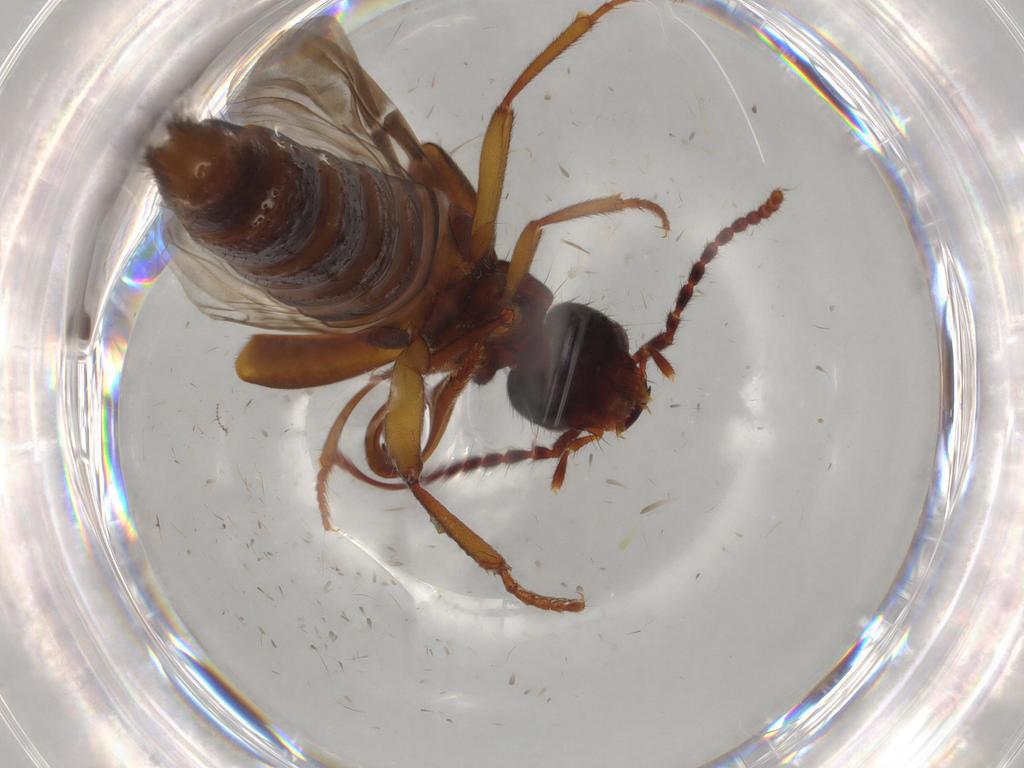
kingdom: Animalia
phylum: Arthropoda
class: Insecta
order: Coleoptera
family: Staphylinidae
